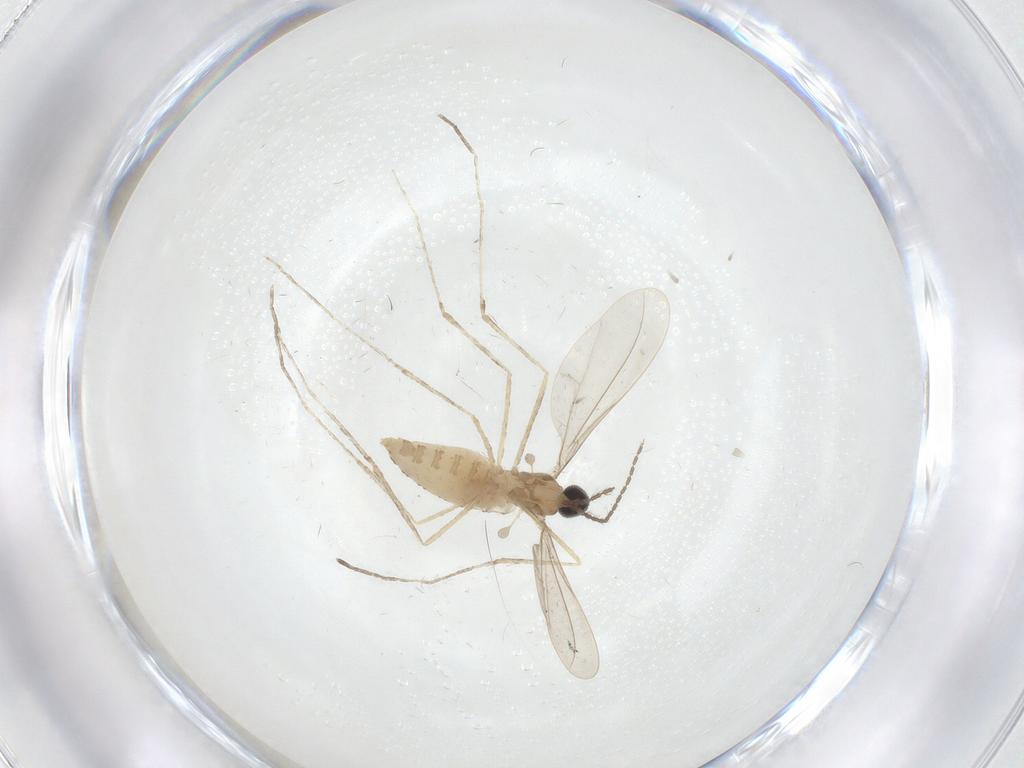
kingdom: Animalia
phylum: Arthropoda
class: Insecta
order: Diptera
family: Cecidomyiidae
